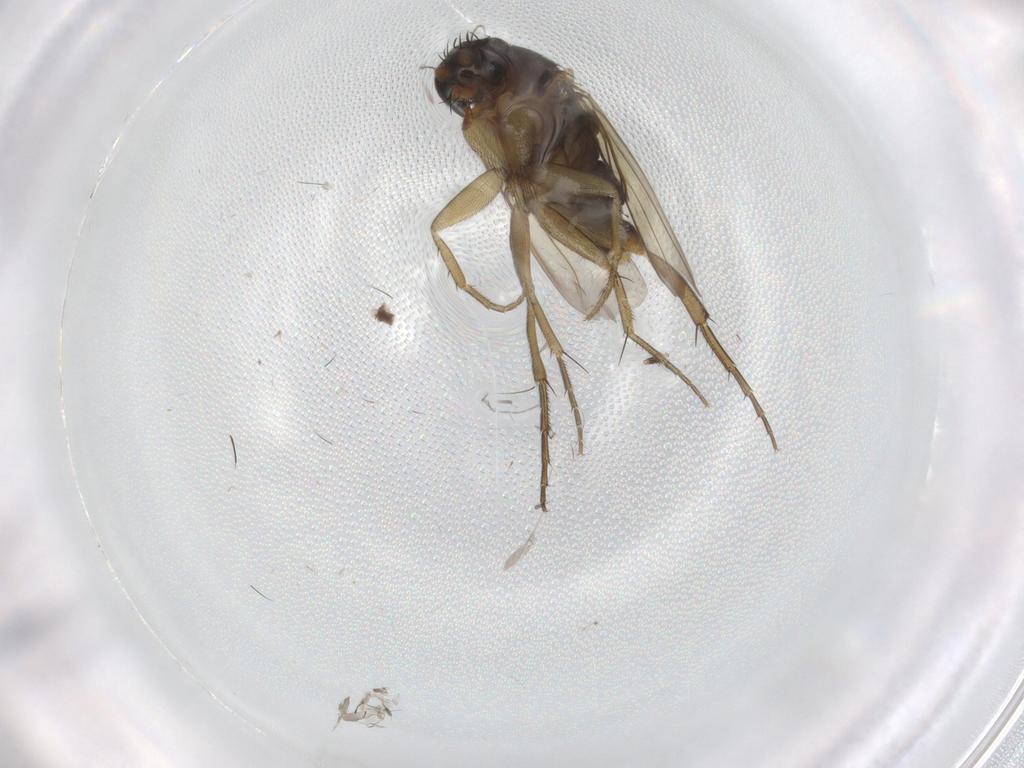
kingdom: Animalia
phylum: Arthropoda
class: Insecta
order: Diptera
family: Phoridae
